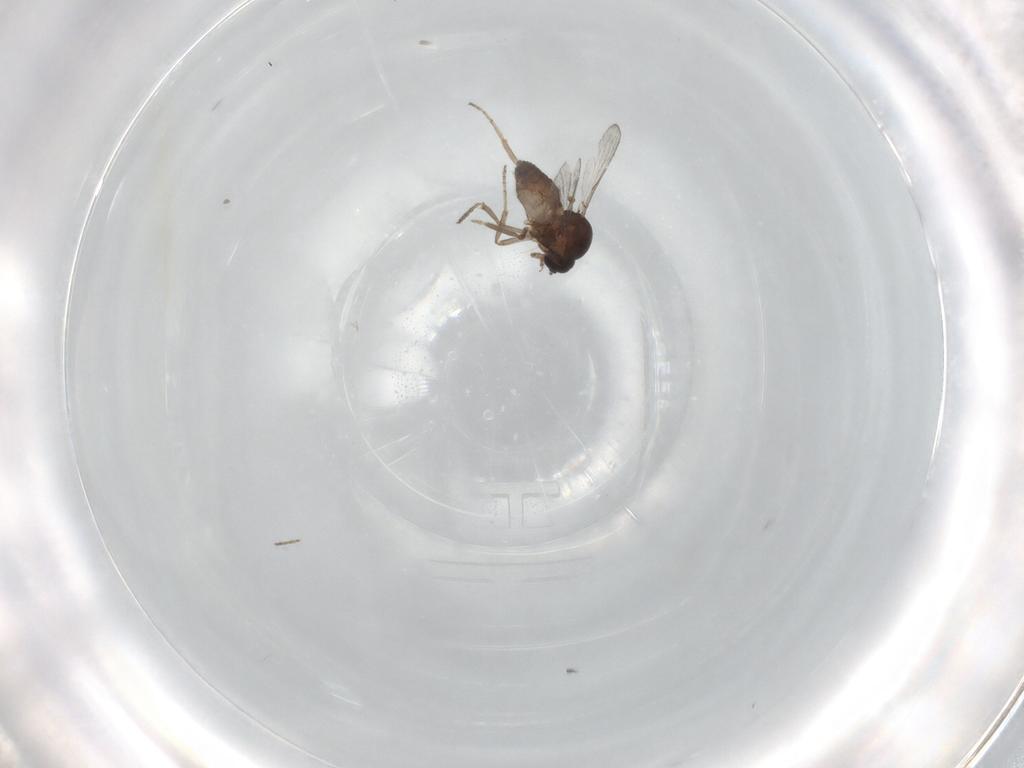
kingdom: Animalia
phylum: Arthropoda
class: Insecta
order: Diptera
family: Ceratopogonidae
